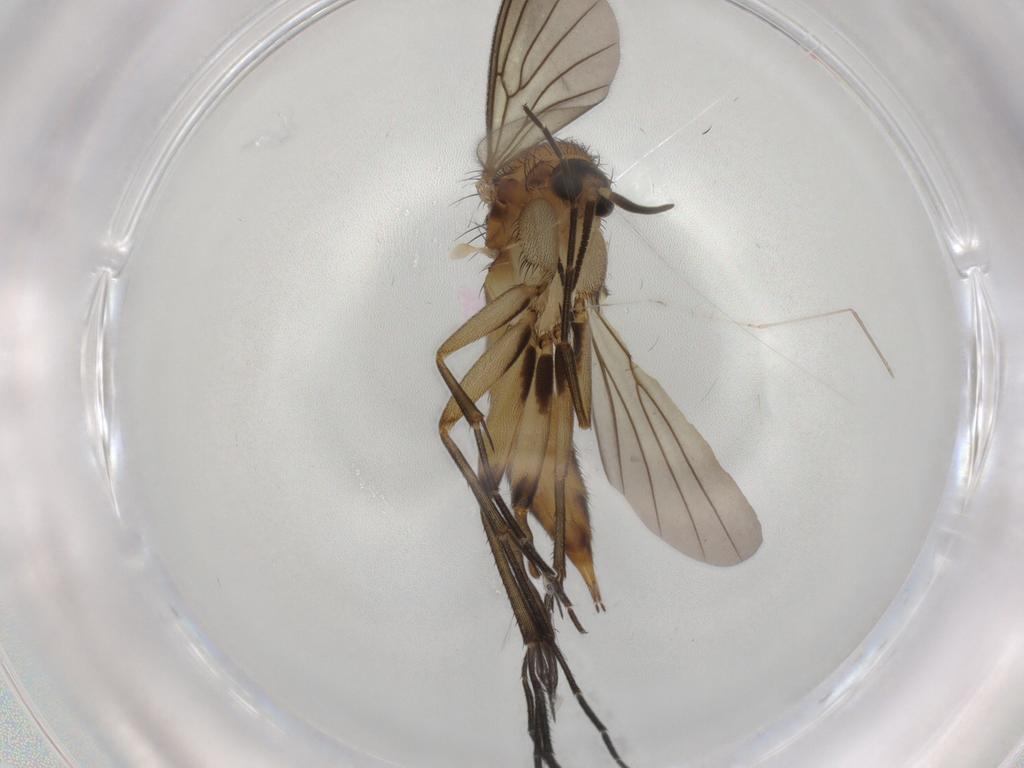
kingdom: Animalia
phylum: Arthropoda
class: Insecta
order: Diptera
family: Mycetophilidae
